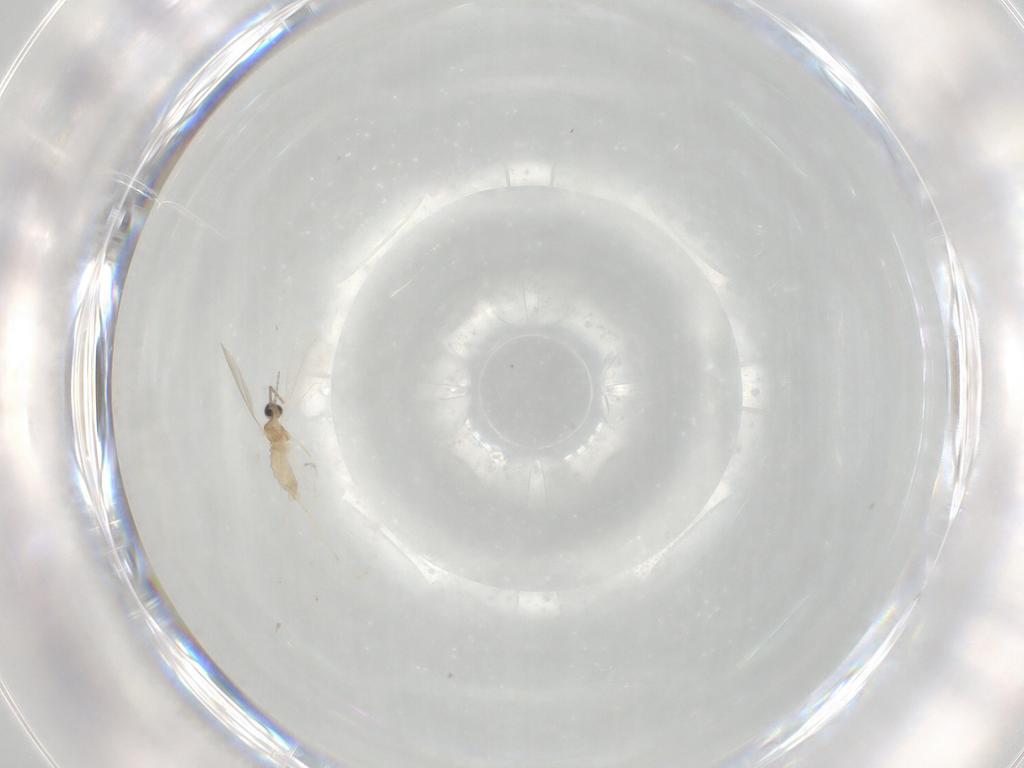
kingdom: Animalia
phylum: Arthropoda
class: Insecta
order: Diptera
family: Cecidomyiidae
